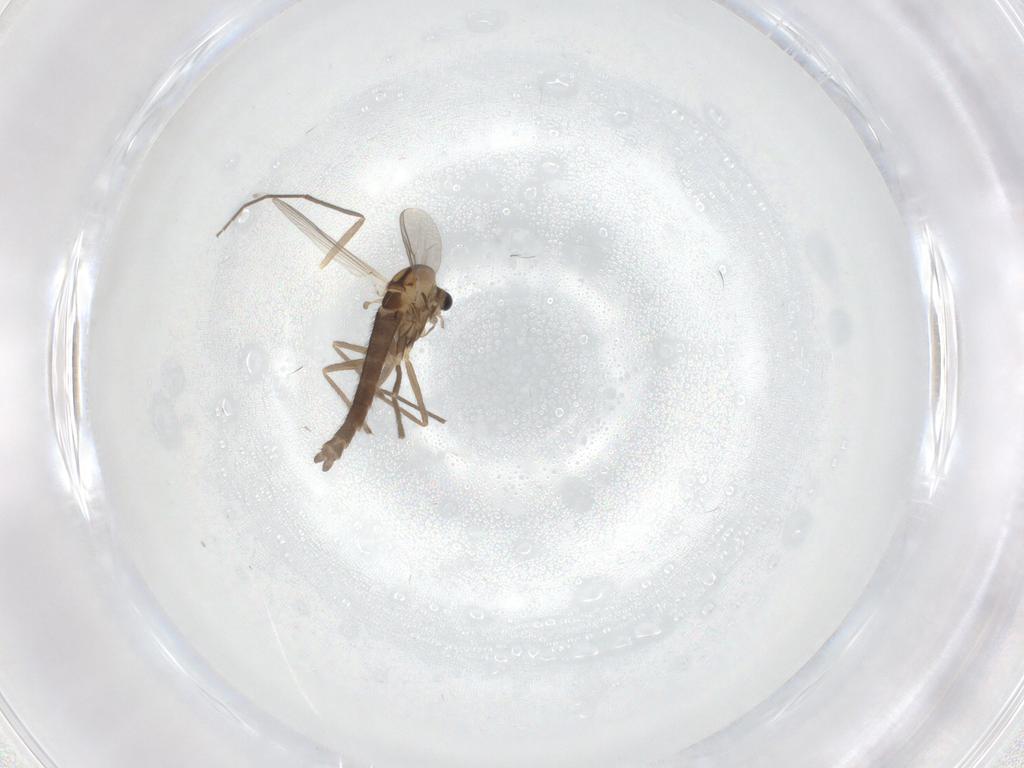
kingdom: Animalia
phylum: Arthropoda
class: Insecta
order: Diptera
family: Chironomidae
